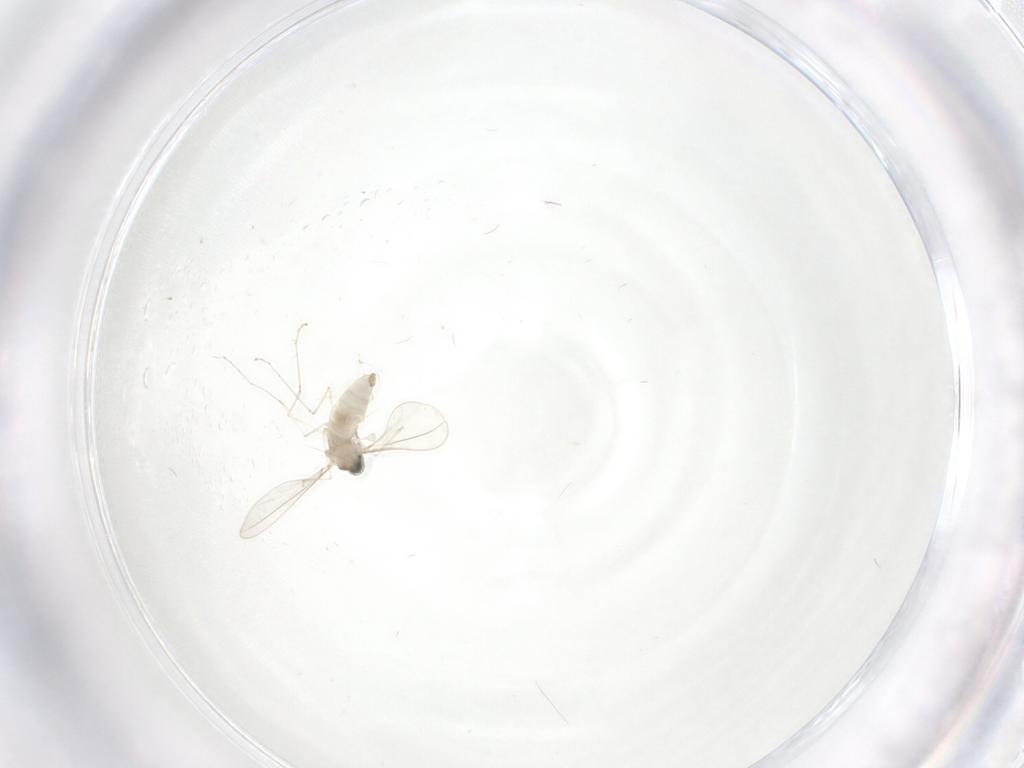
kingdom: Animalia
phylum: Arthropoda
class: Insecta
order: Diptera
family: Cecidomyiidae
